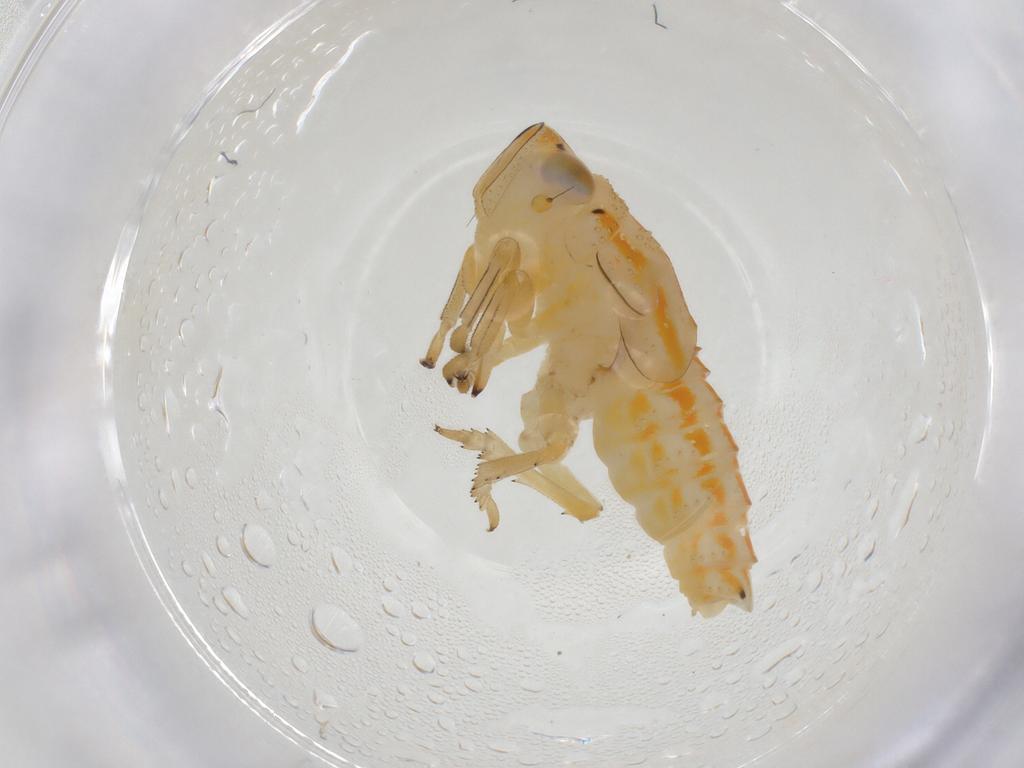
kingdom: Animalia
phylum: Arthropoda
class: Insecta
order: Hemiptera
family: Issidae
